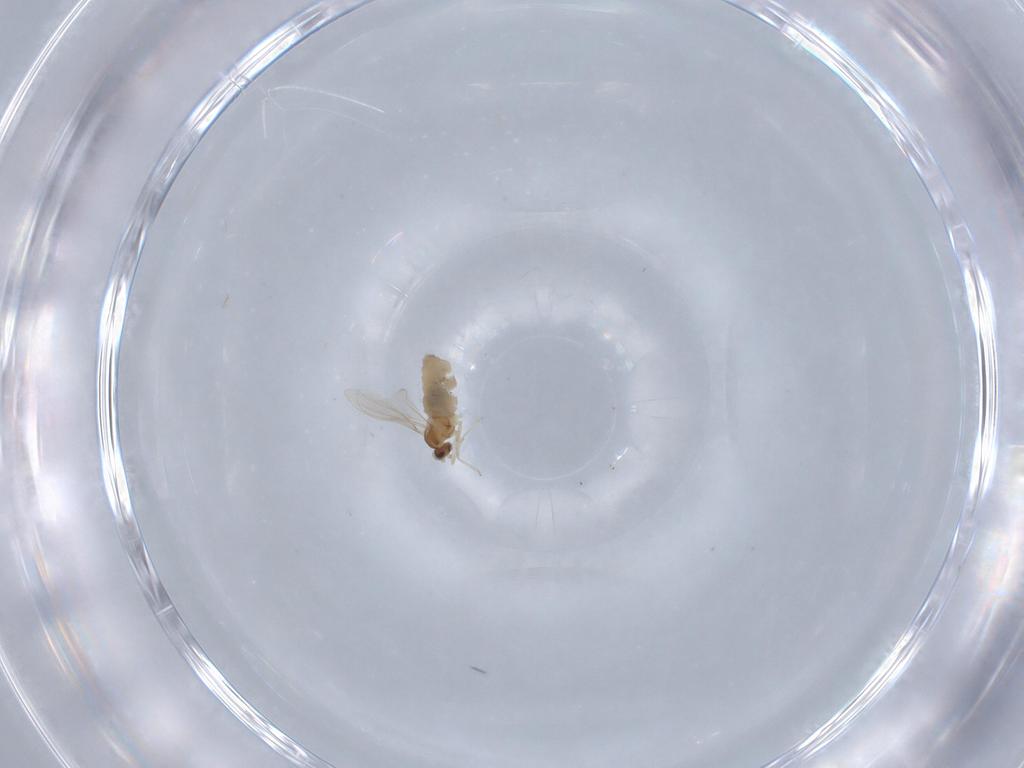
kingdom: Animalia
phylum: Arthropoda
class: Insecta
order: Diptera
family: Cecidomyiidae
